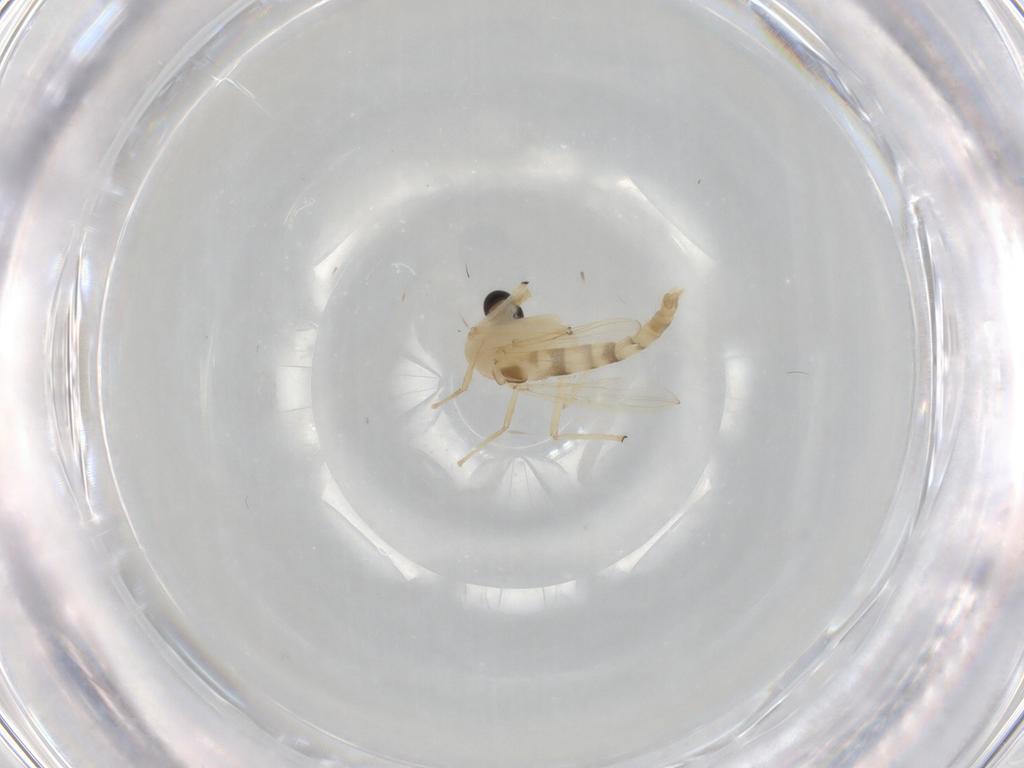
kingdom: Animalia
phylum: Arthropoda
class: Insecta
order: Diptera
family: Chironomidae
